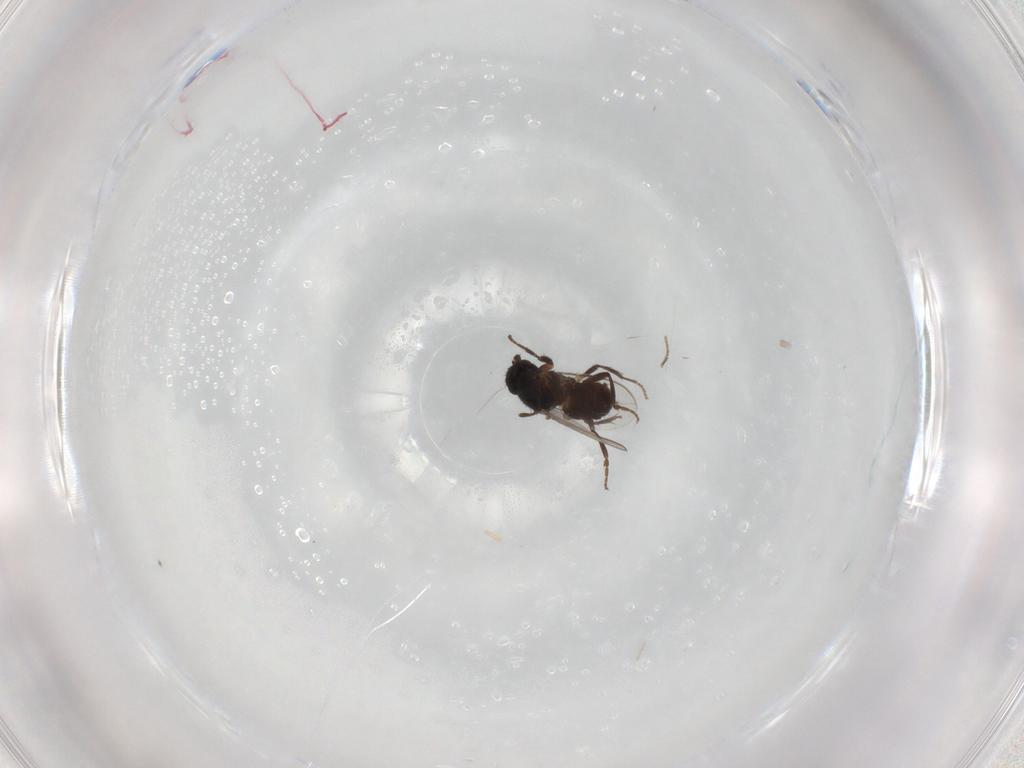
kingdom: Animalia
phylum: Arthropoda
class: Insecta
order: Diptera
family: Sphaeroceridae
